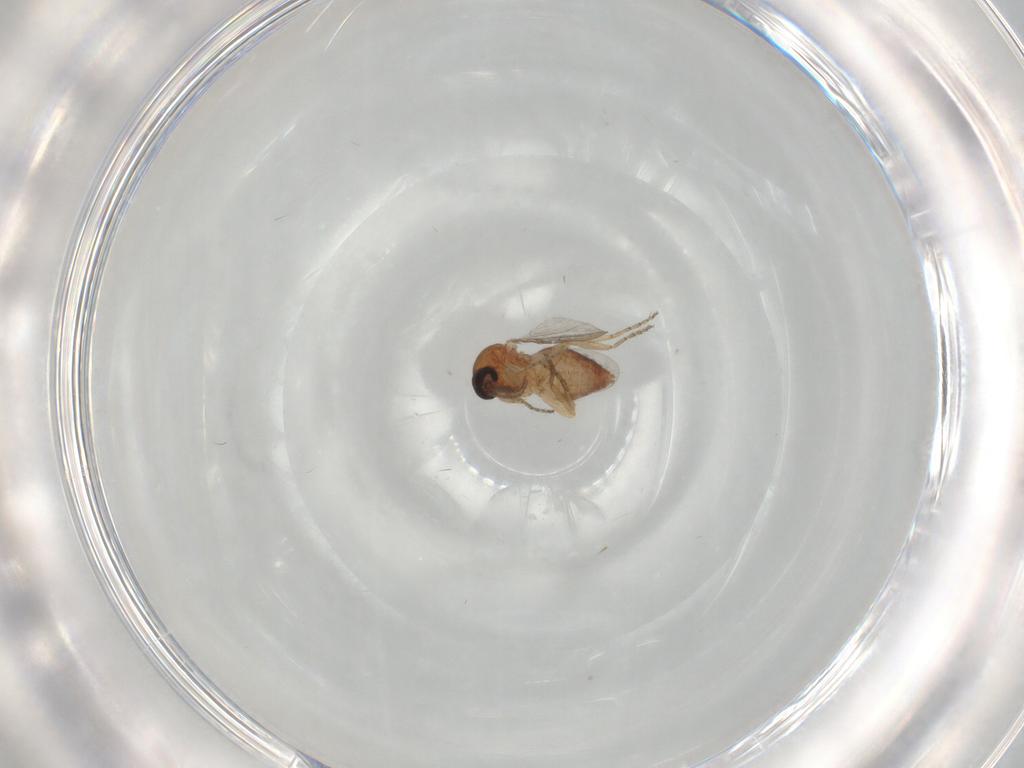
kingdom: Animalia
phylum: Arthropoda
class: Insecta
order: Diptera
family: Ceratopogonidae
